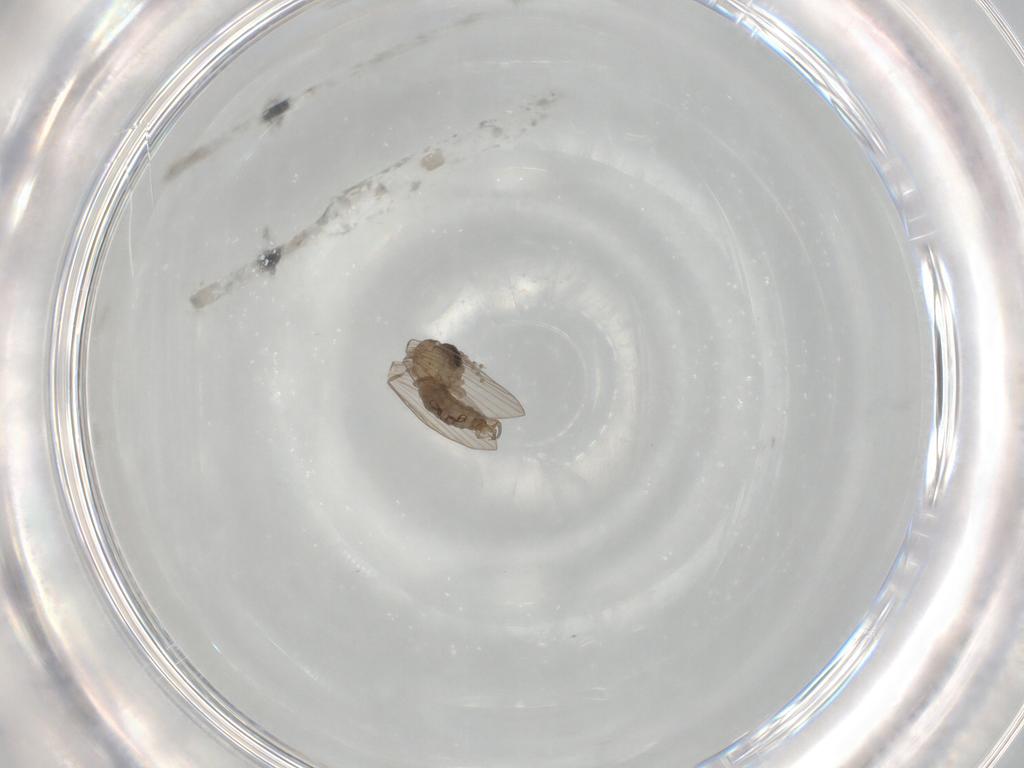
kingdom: Animalia
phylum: Arthropoda
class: Insecta
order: Diptera
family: Psychodidae
